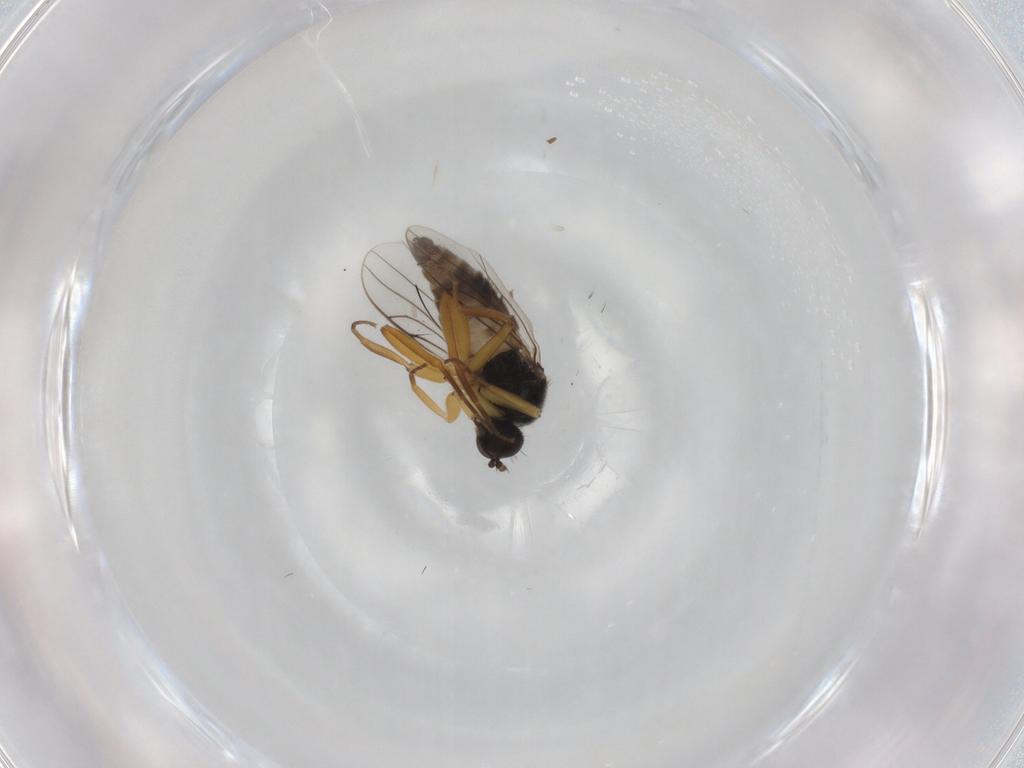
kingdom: Animalia
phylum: Arthropoda
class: Insecta
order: Diptera
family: Hybotidae
